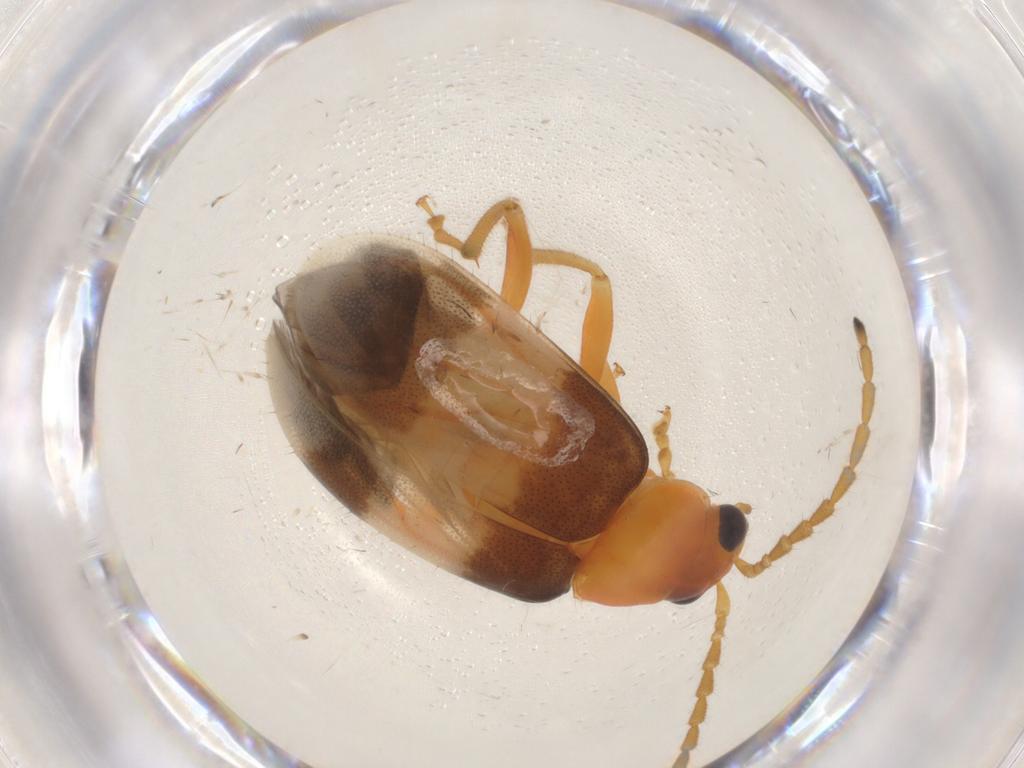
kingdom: Animalia
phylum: Arthropoda
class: Insecta
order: Coleoptera
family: Chrysomelidae
